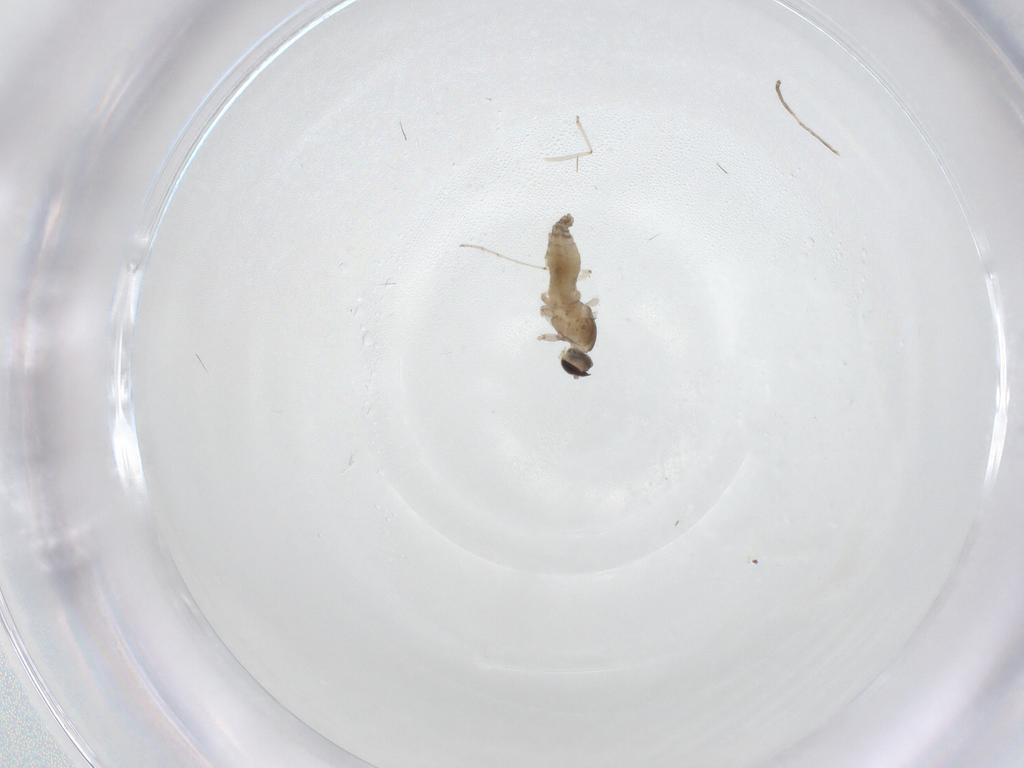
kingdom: Animalia
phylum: Arthropoda
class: Insecta
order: Diptera
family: Cecidomyiidae
